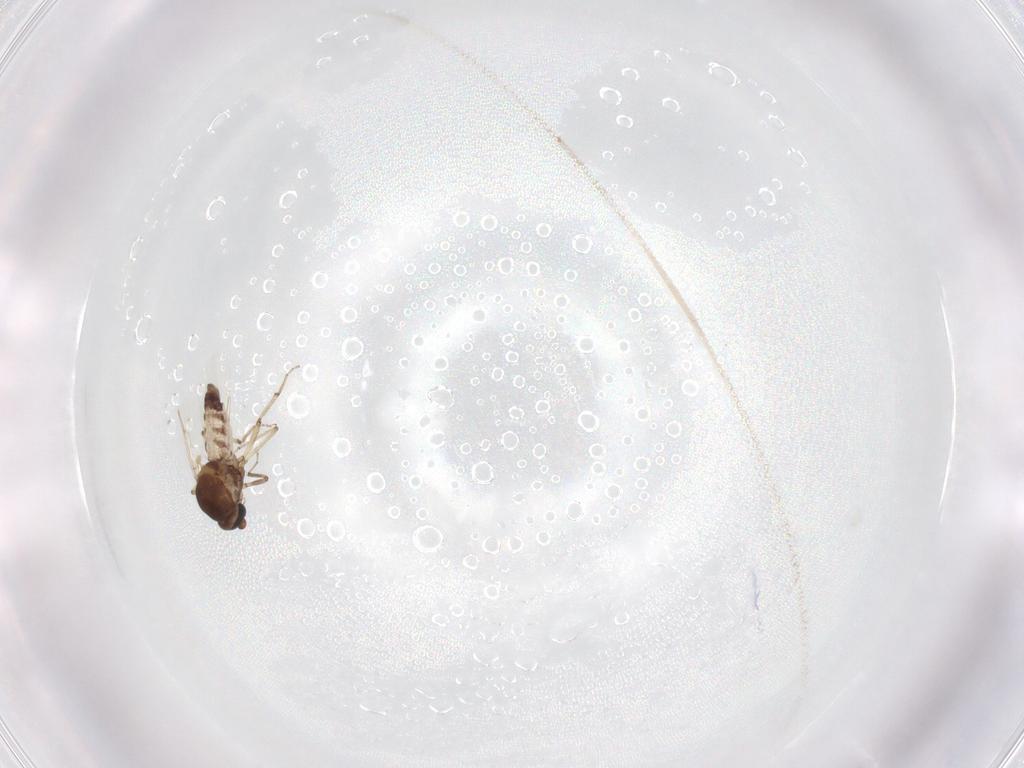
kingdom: Animalia
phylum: Arthropoda
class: Insecta
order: Diptera
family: Ceratopogonidae
